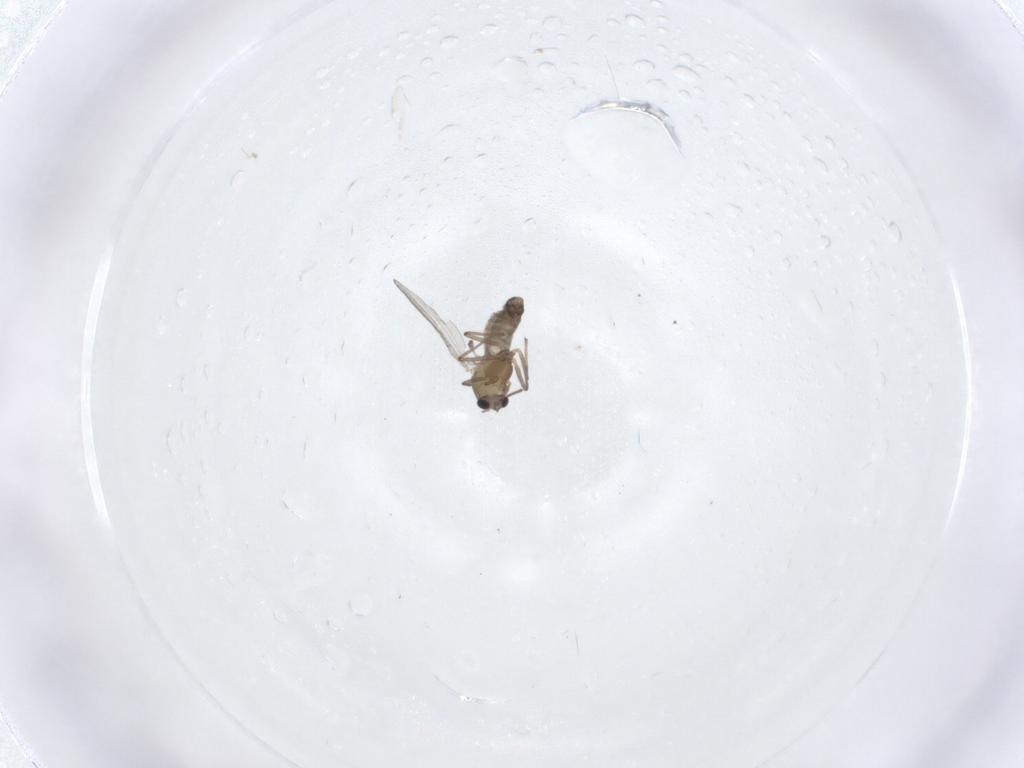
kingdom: Animalia
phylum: Arthropoda
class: Insecta
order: Diptera
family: Chironomidae
